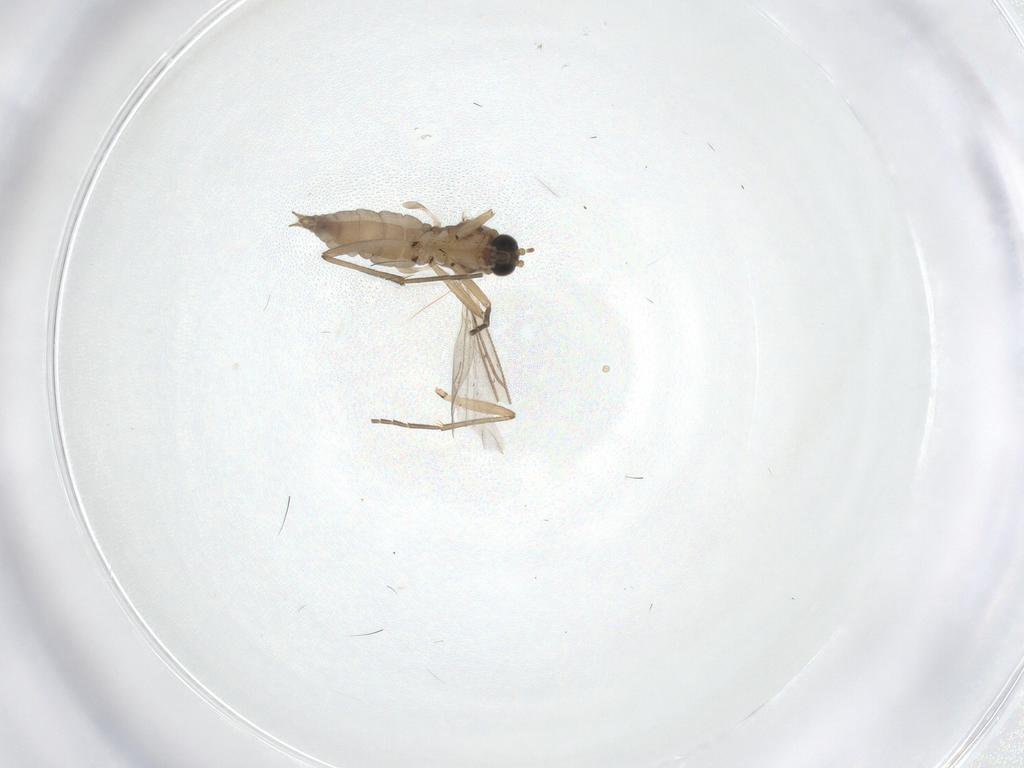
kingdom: Animalia
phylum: Arthropoda
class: Insecta
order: Diptera
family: Sciaridae
